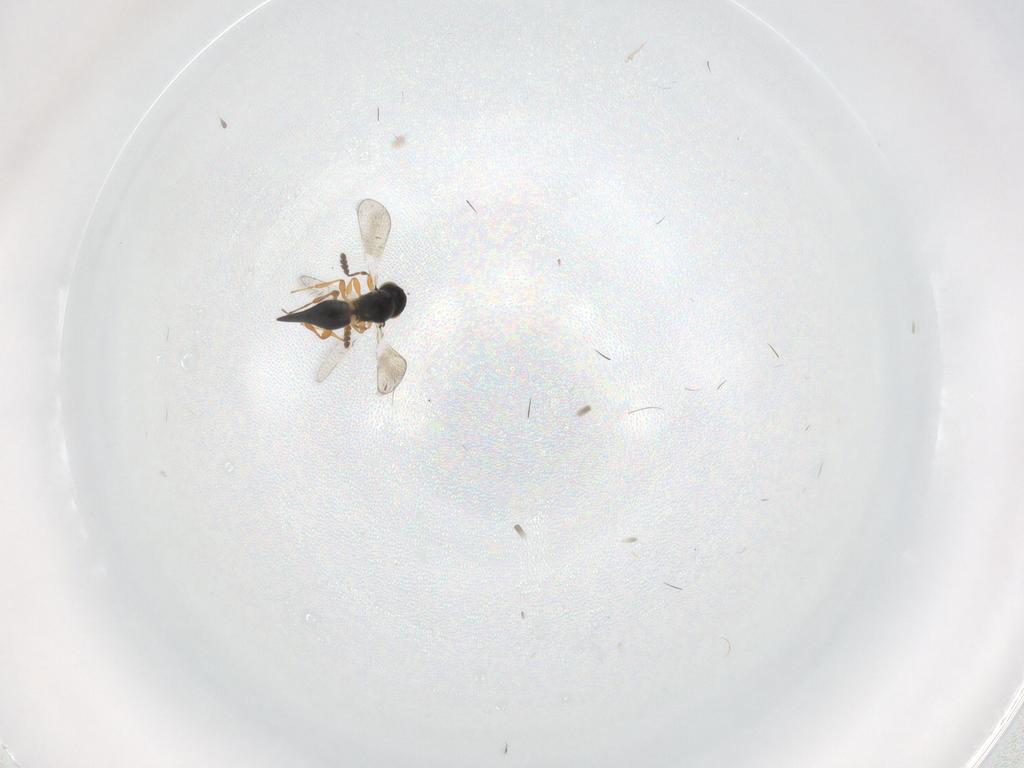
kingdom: Animalia
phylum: Arthropoda
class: Insecta
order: Hymenoptera
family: Platygastridae
